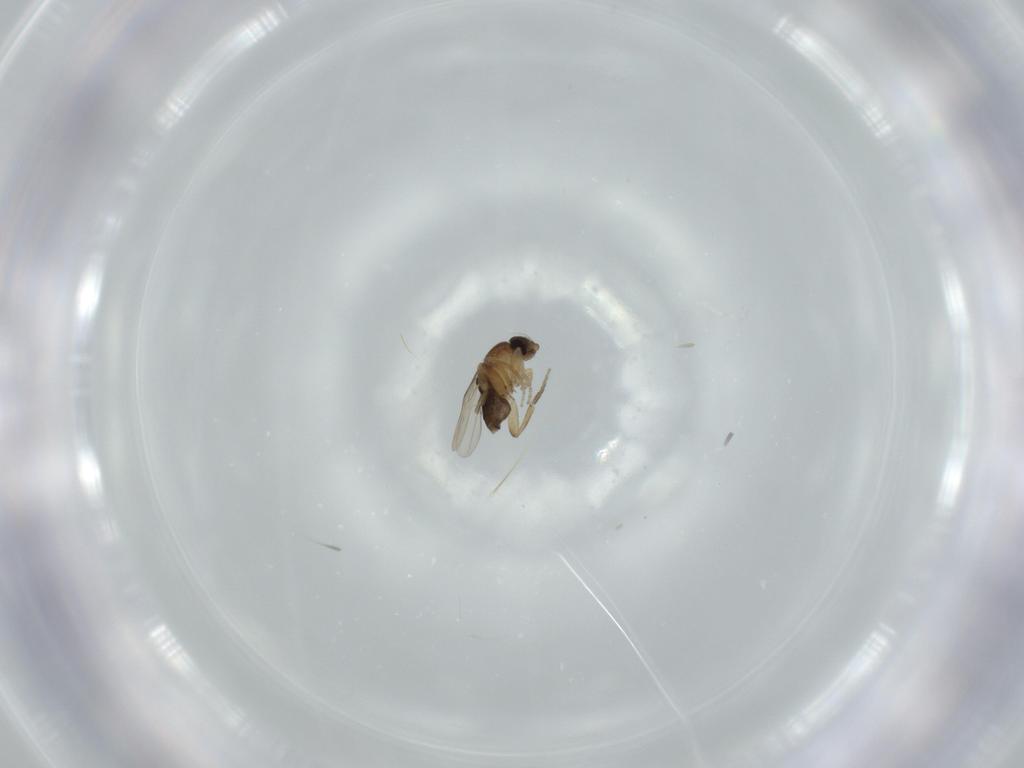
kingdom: Animalia
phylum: Arthropoda
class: Insecta
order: Diptera
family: Phoridae
